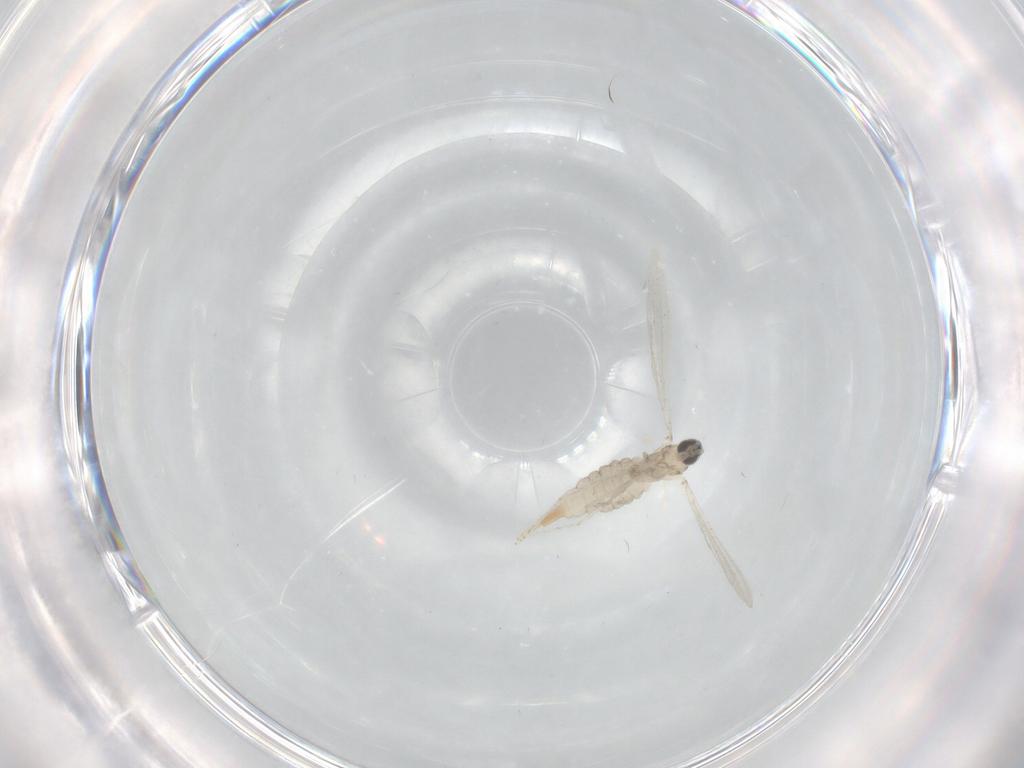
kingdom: Animalia
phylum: Arthropoda
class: Insecta
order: Diptera
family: Cecidomyiidae
